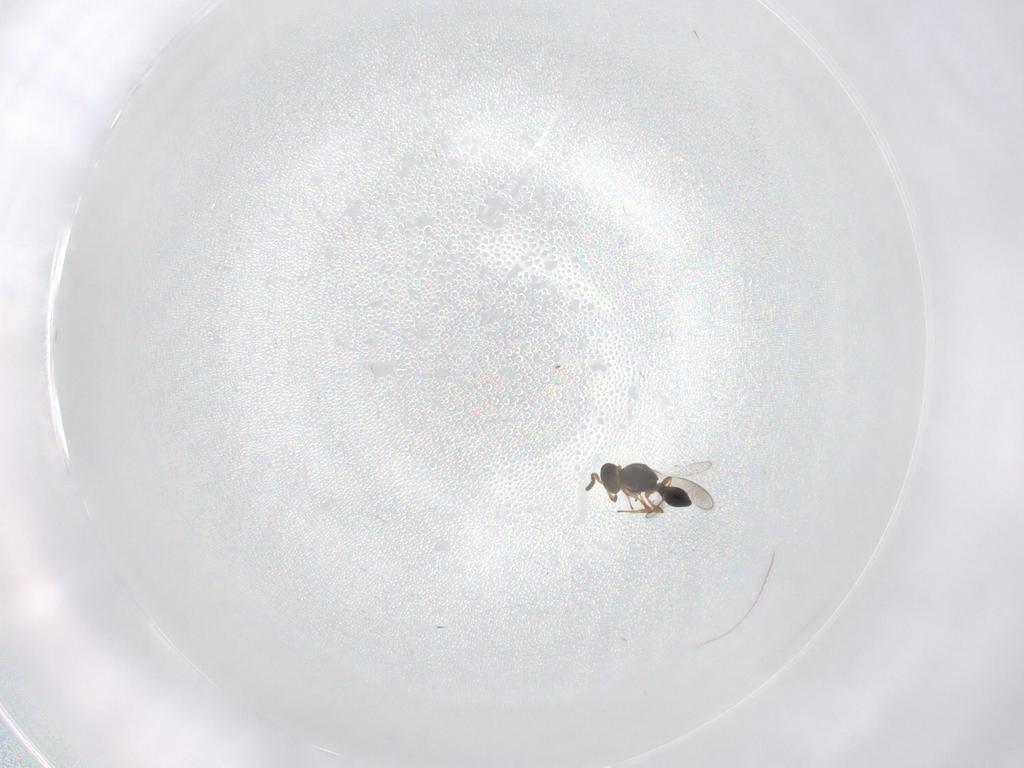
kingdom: Animalia
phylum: Arthropoda
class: Insecta
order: Hymenoptera
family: Platygastridae
